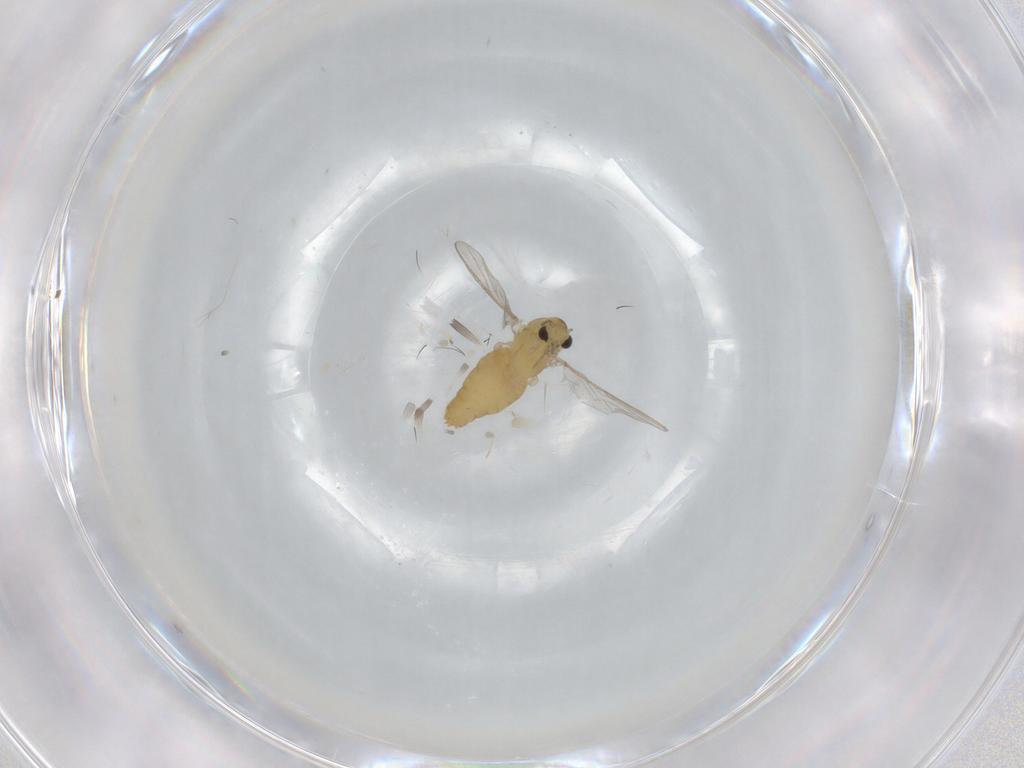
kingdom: Animalia
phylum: Arthropoda
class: Insecta
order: Diptera
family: Chironomidae
